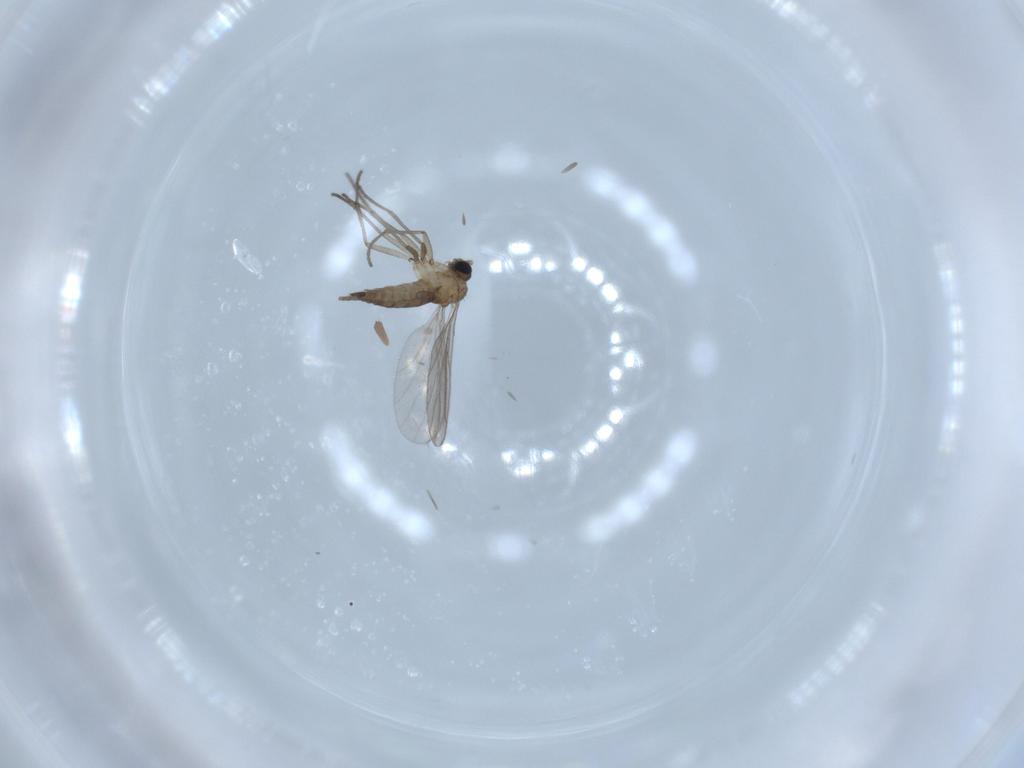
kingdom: Animalia
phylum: Arthropoda
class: Insecta
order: Diptera
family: Sciaridae
